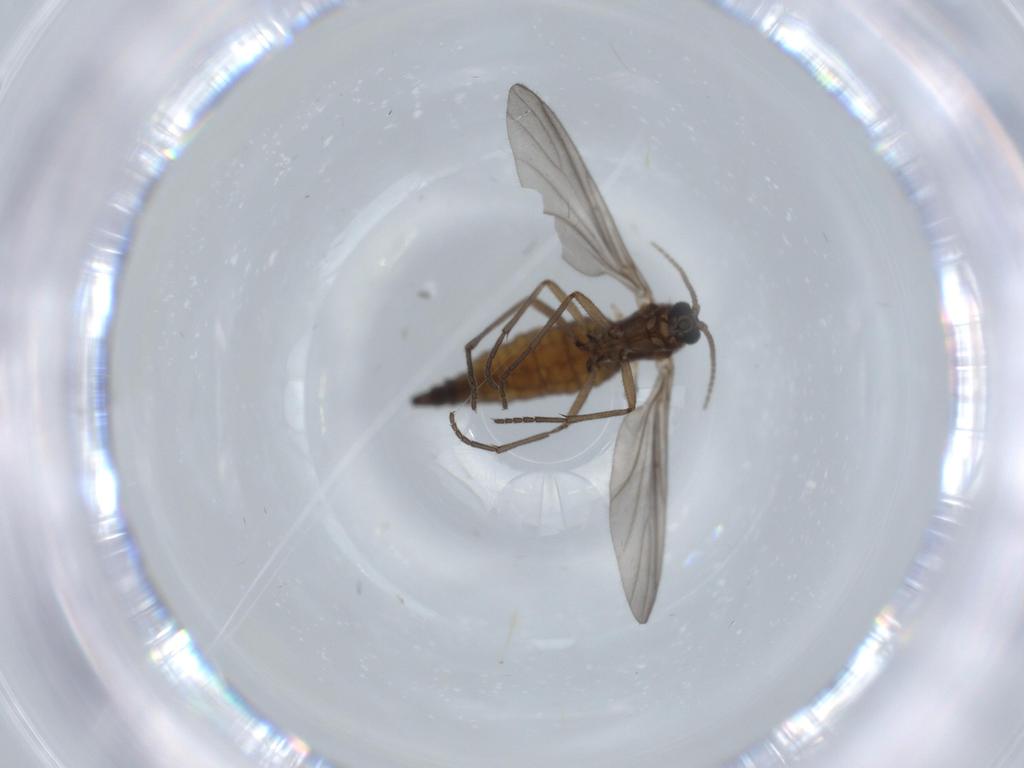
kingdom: Animalia
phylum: Arthropoda
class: Insecta
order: Diptera
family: Sciaridae
